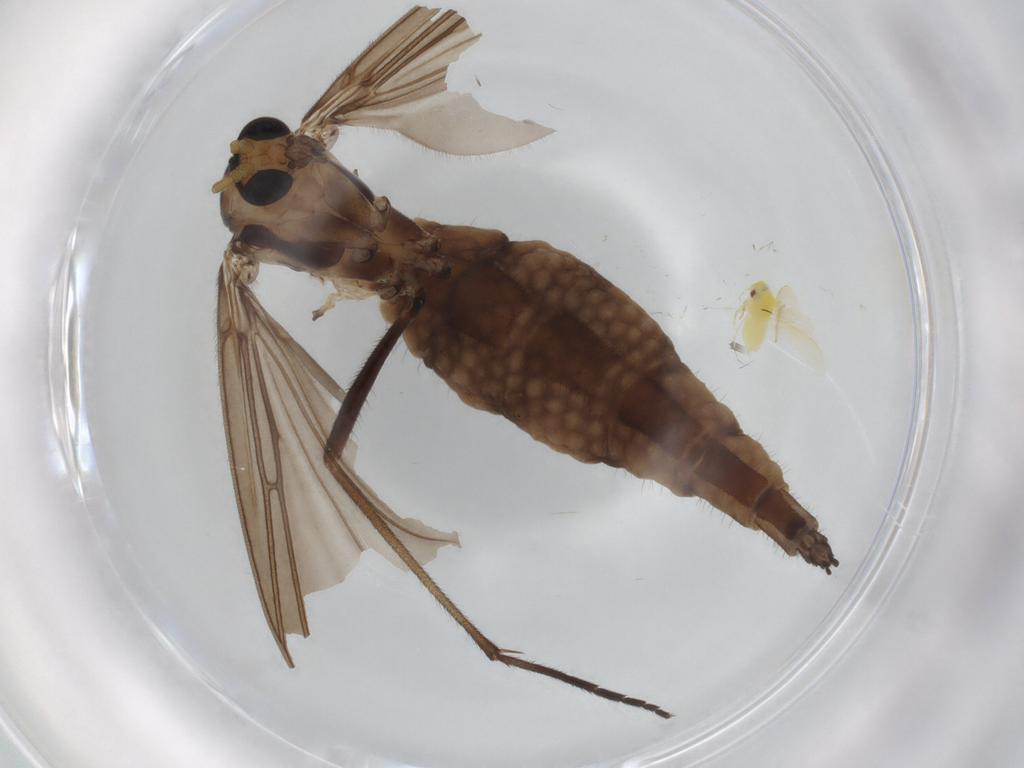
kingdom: Animalia
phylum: Arthropoda
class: Insecta
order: Diptera
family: Sciaridae
